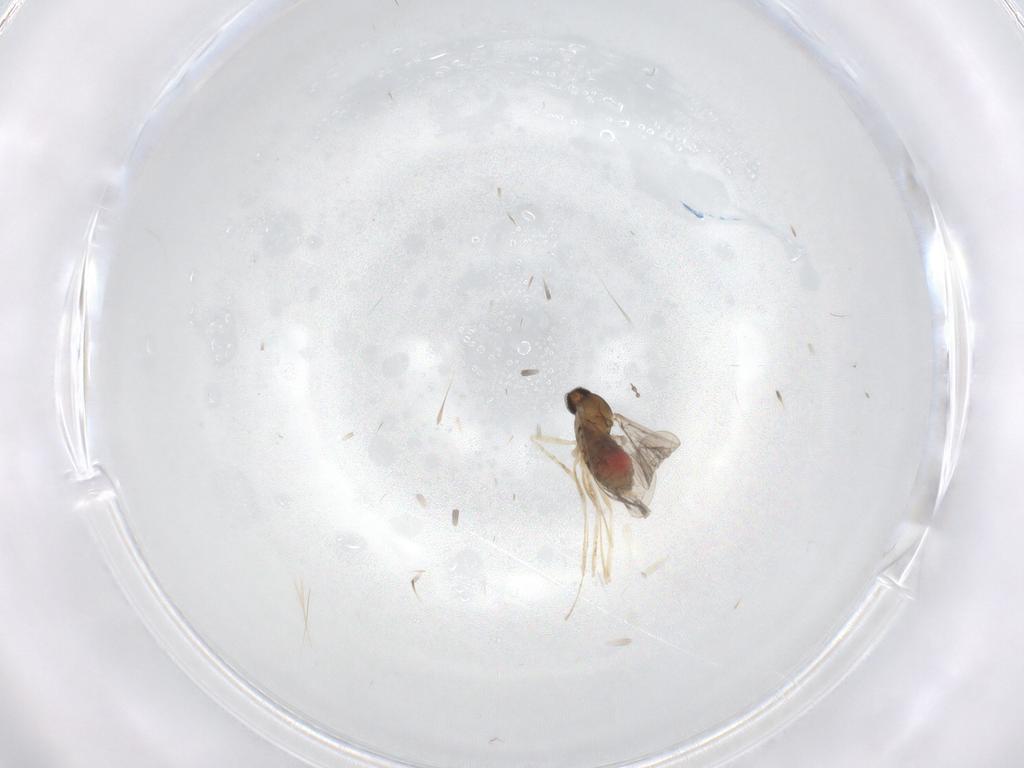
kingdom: Animalia
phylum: Arthropoda
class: Insecta
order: Diptera
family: Cecidomyiidae
